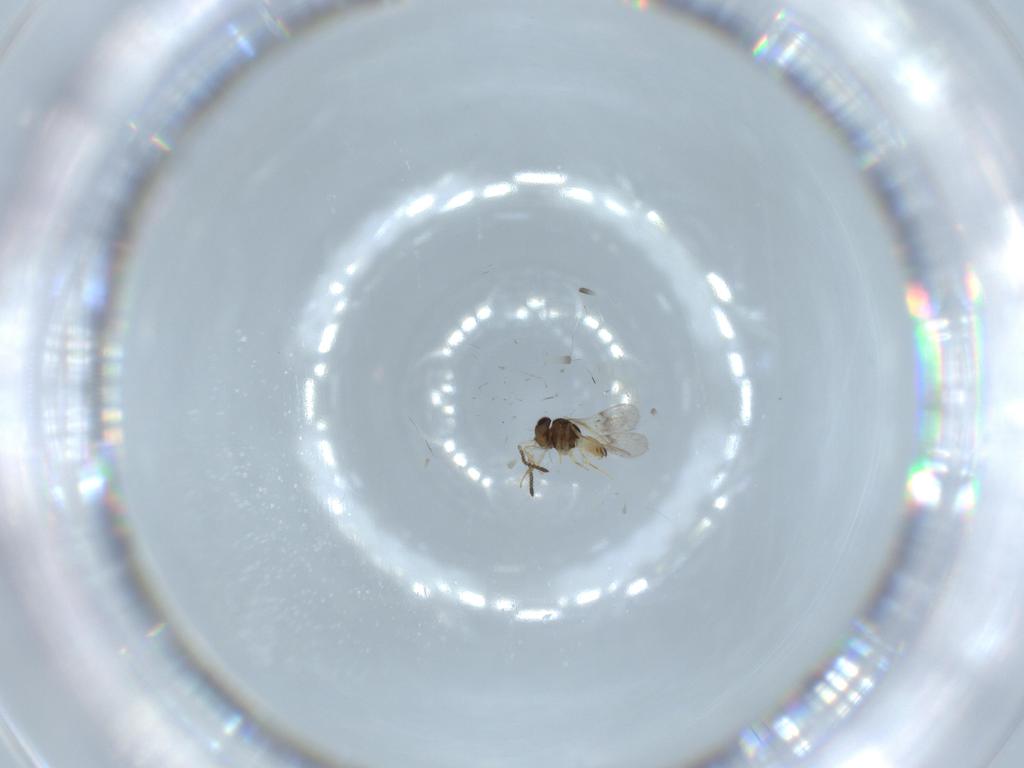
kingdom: Animalia
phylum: Arthropoda
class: Insecta
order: Hymenoptera
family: Scelionidae
